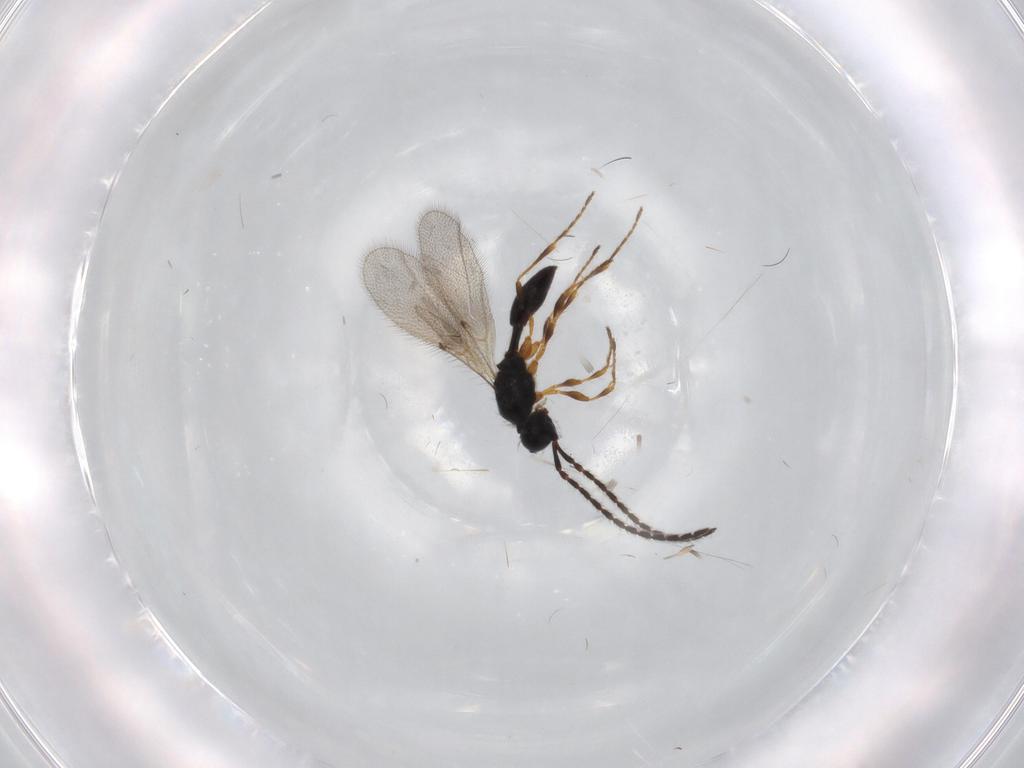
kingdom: Animalia
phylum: Arthropoda
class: Insecta
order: Hymenoptera
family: Diapriidae
